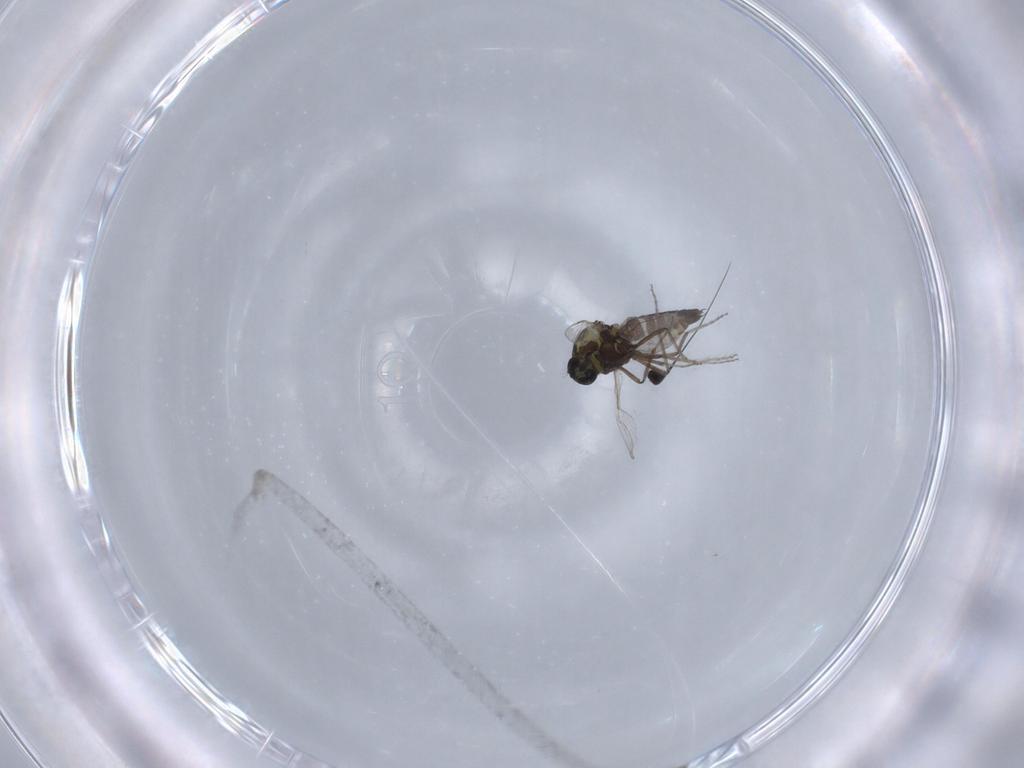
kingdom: Animalia
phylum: Arthropoda
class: Insecta
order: Diptera
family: Ceratopogonidae
